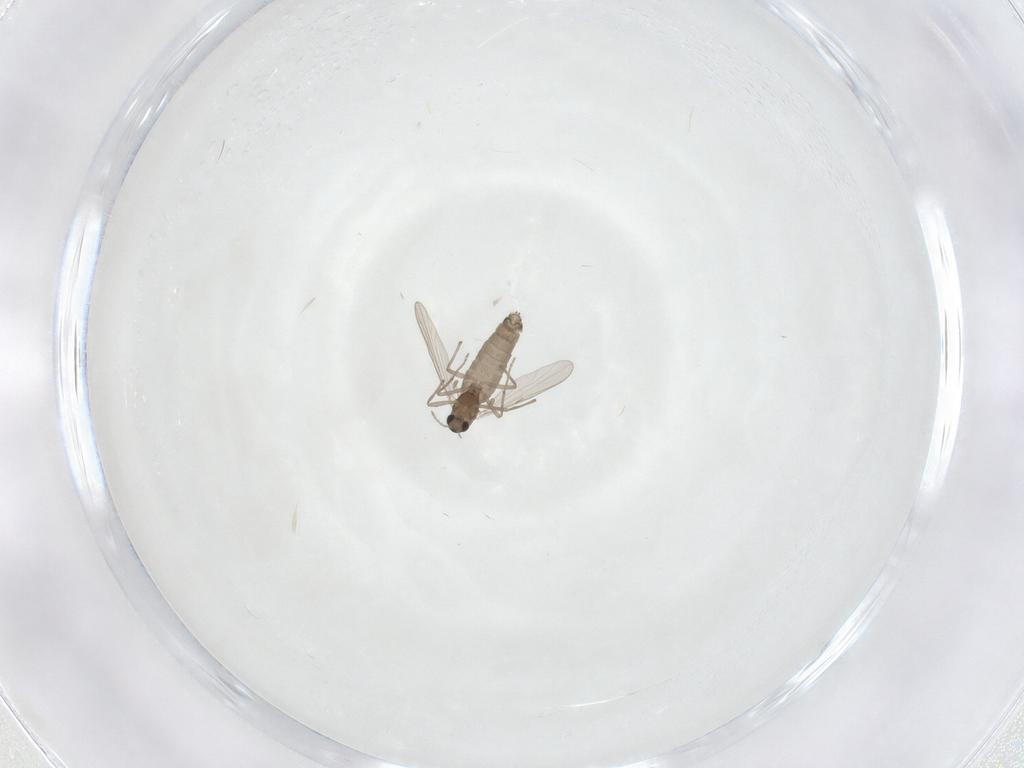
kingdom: Animalia
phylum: Arthropoda
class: Insecta
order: Diptera
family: Chironomidae
